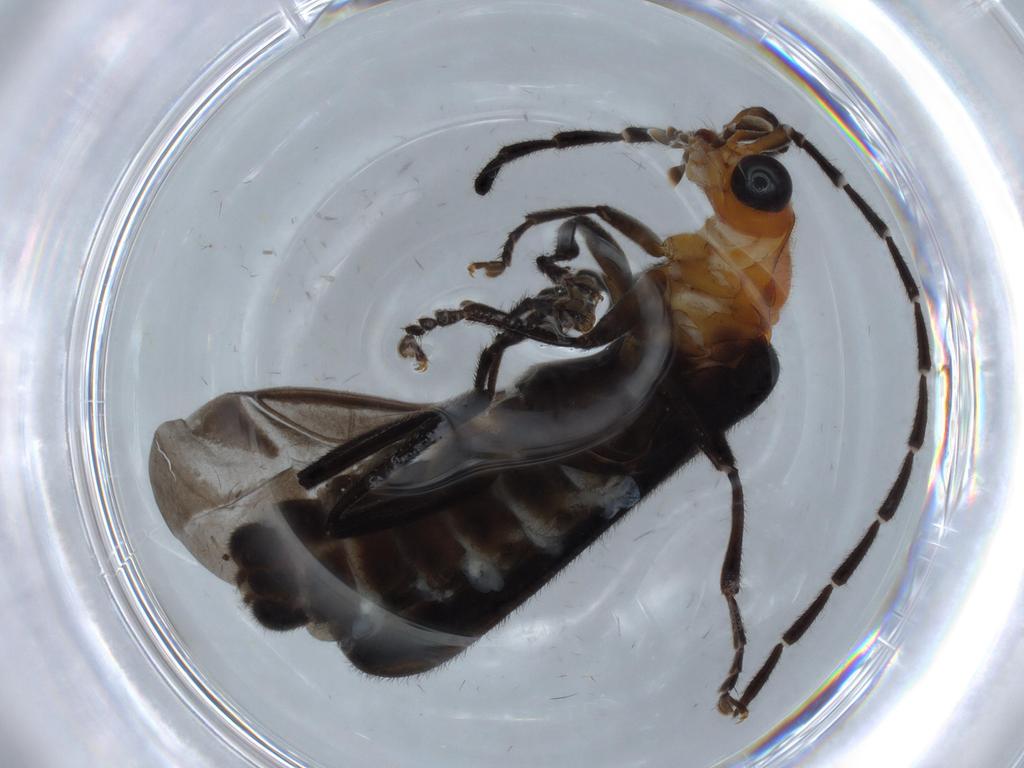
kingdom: Animalia
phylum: Arthropoda
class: Insecta
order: Coleoptera
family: Cantharidae
